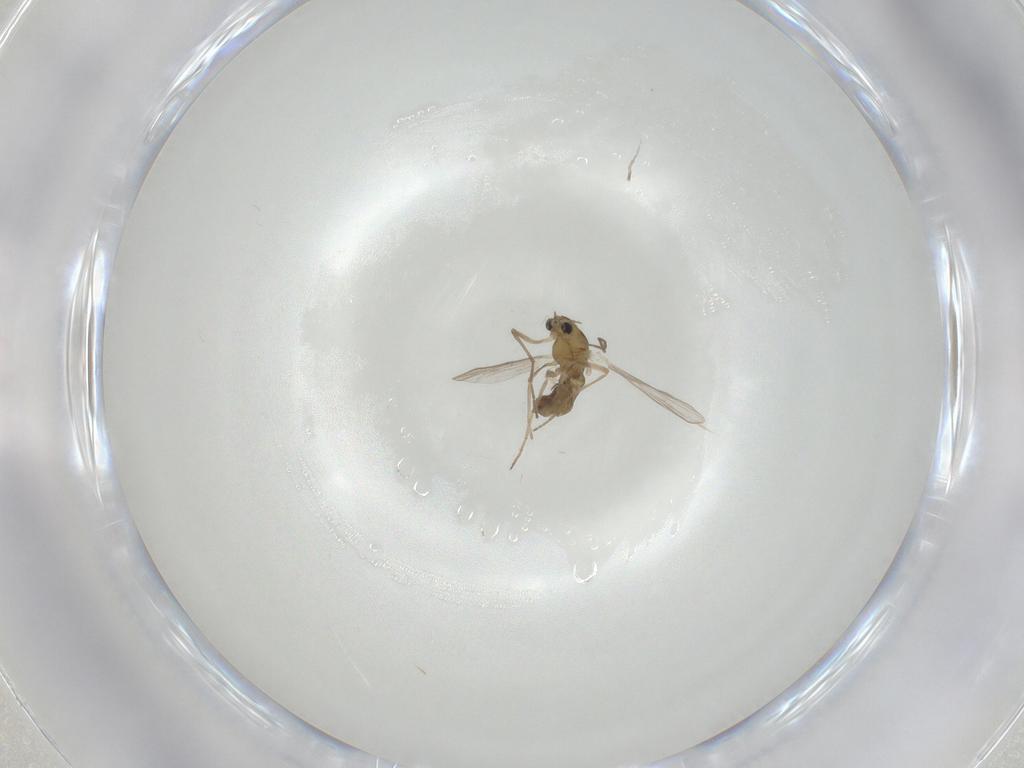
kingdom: Animalia
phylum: Arthropoda
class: Insecta
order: Diptera
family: Chironomidae
